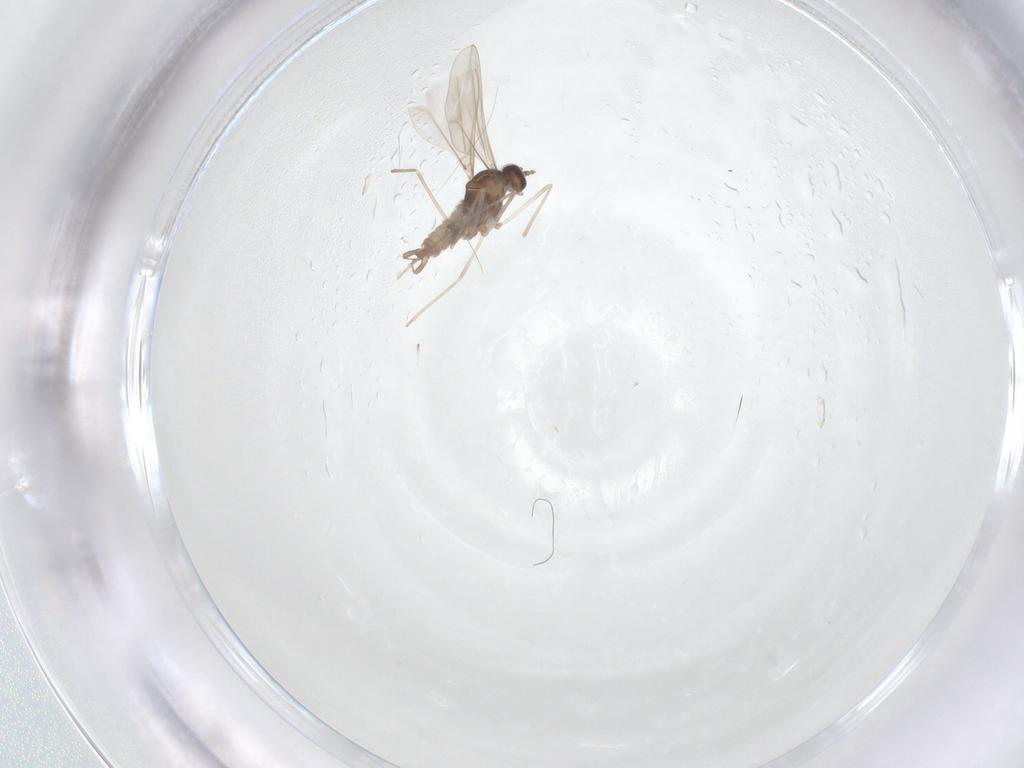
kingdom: Animalia
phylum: Arthropoda
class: Insecta
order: Diptera
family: Cecidomyiidae
